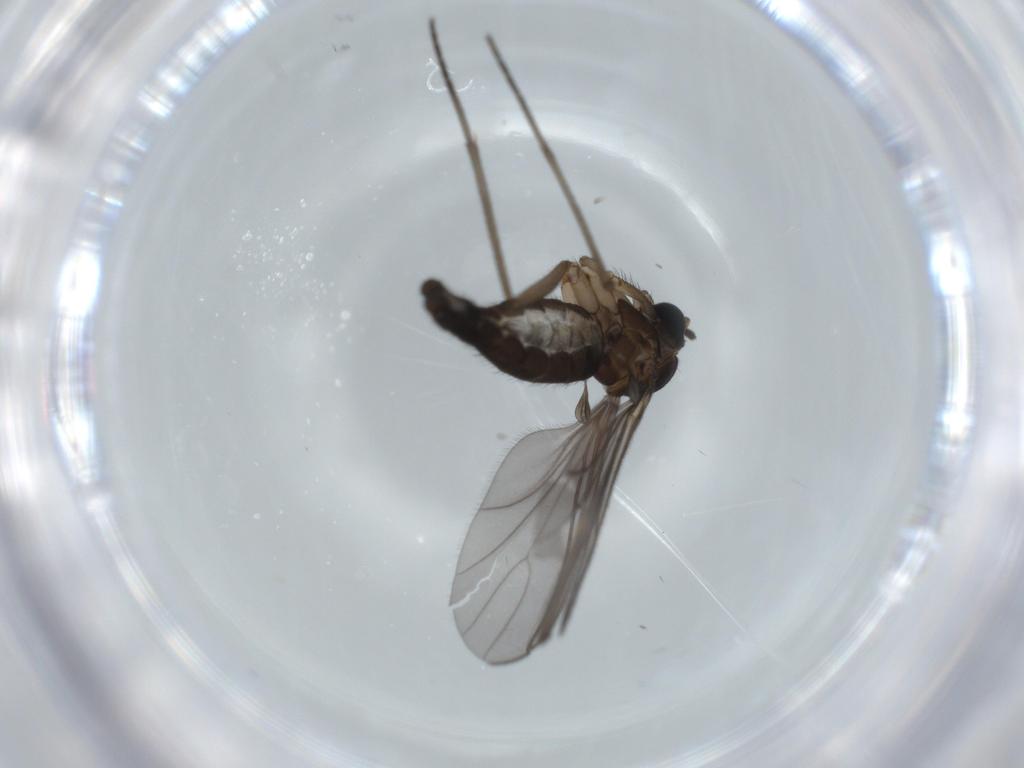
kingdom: Animalia
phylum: Arthropoda
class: Insecta
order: Diptera
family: Sciaridae
